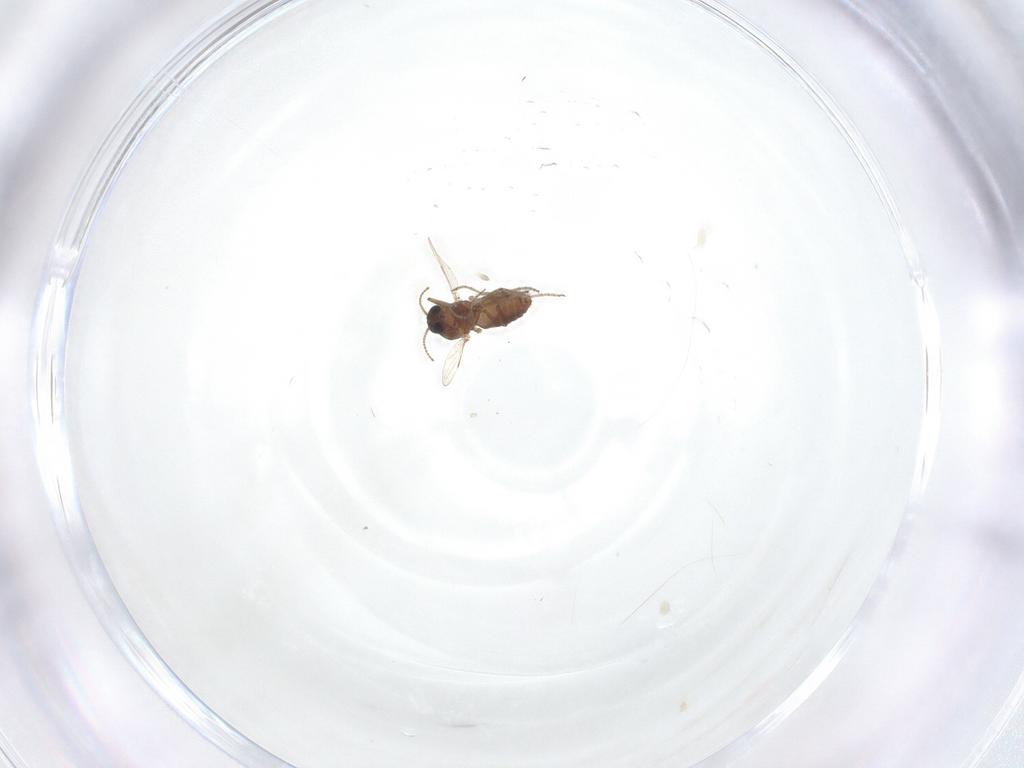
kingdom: Animalia
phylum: Arthropoda
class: Insecta
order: Diptera
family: Ceratopogonidae
